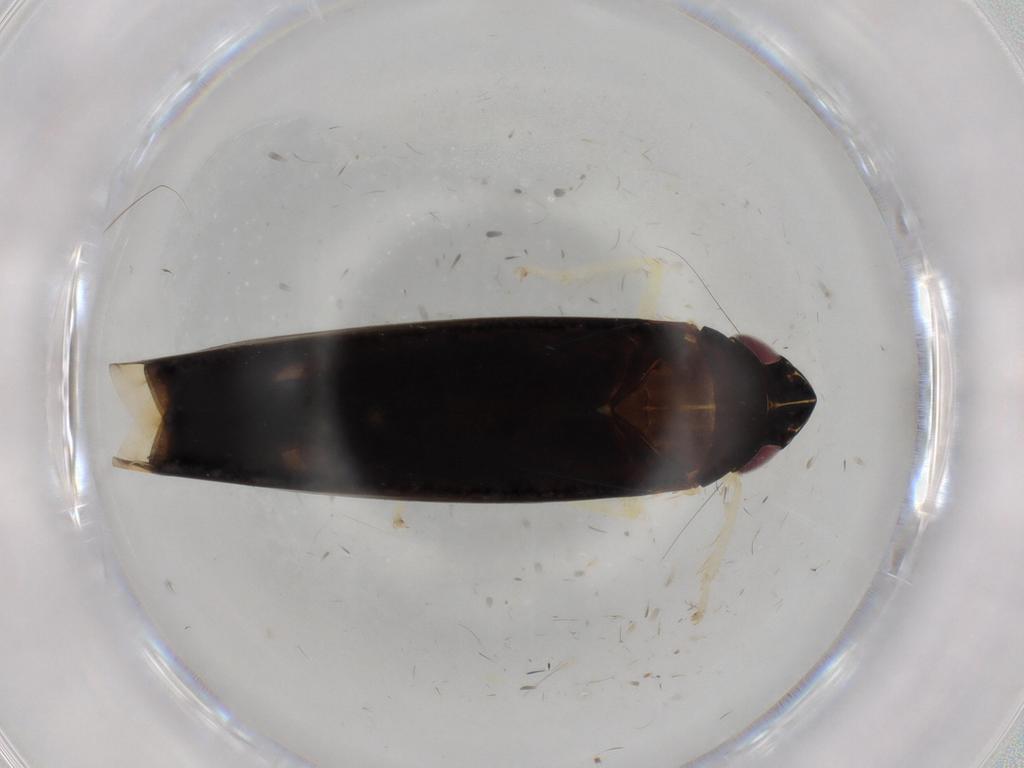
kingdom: Animalia
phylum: Arthropoda
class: Insecta
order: Hemiptera
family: Cicadellidae
